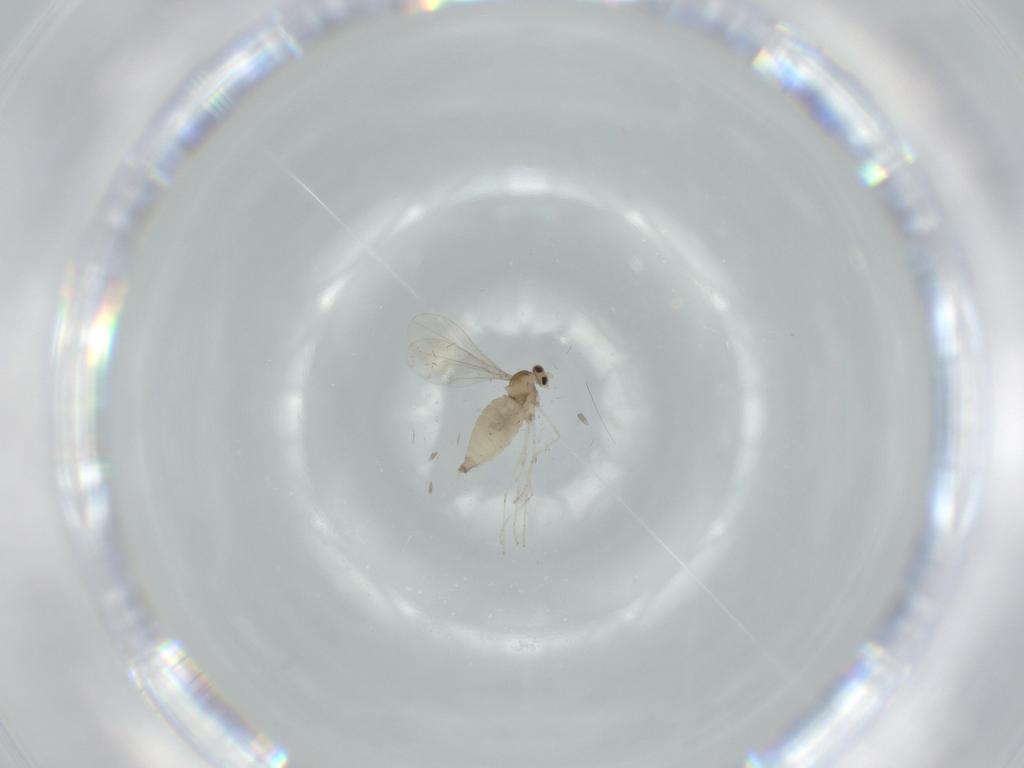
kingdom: Animalia
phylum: Arthropoda
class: Insecta
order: Diptera
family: Cecidomyiidae
